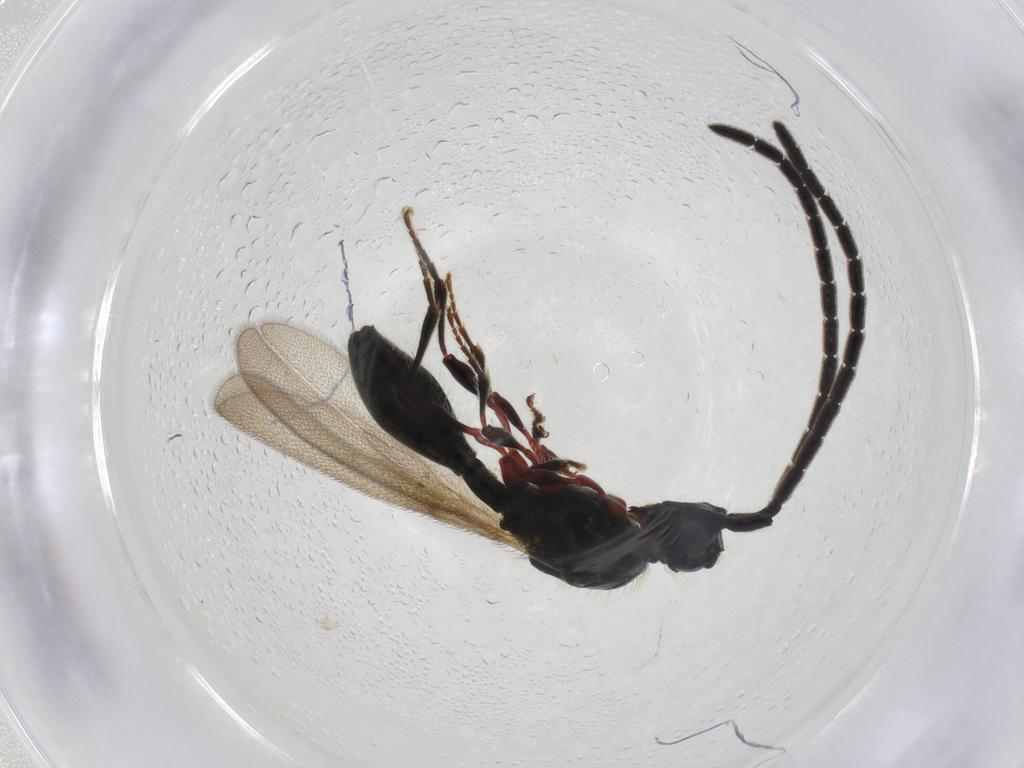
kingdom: Animalia
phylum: Arthropoda
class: Insecta
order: Hymenoptera
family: Diapriidae
